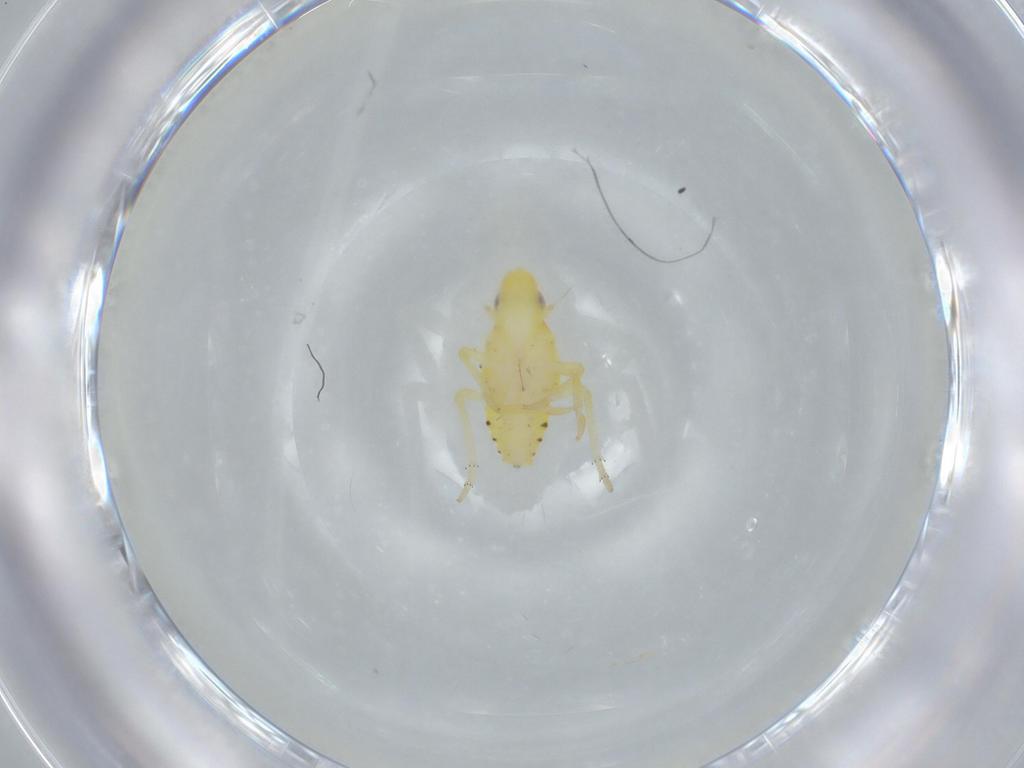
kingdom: Animalia
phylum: Arthropoda
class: Insecta
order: Hemiptera
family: Tropiduchidae
